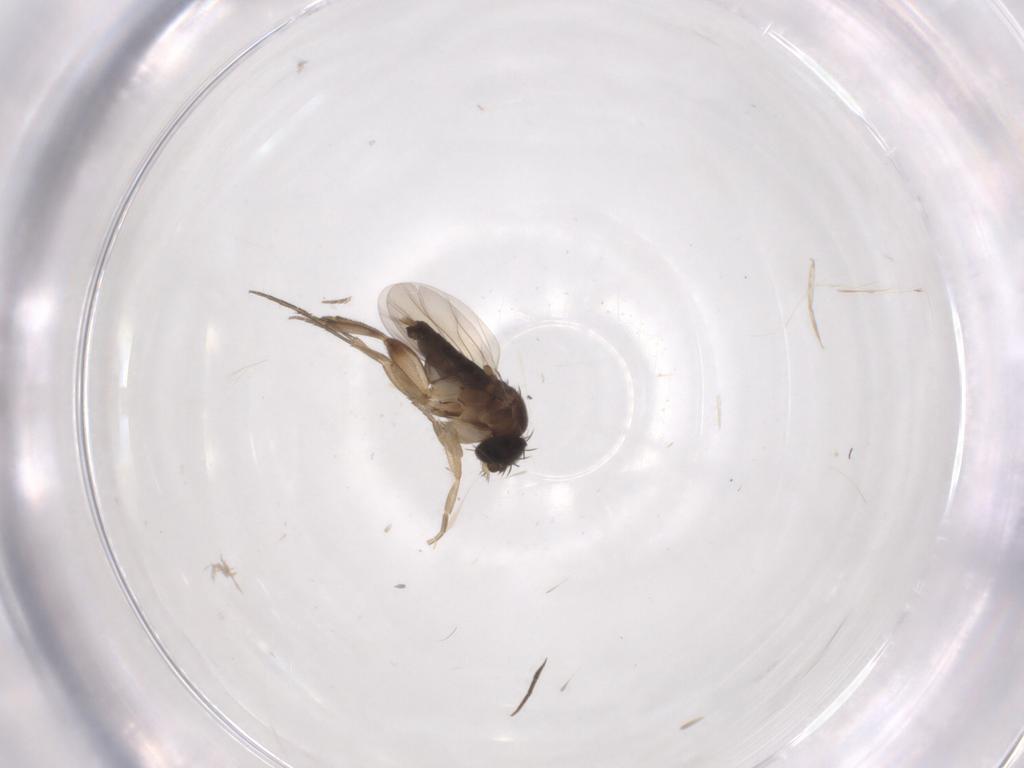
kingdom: Animalia
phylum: Arthropoda
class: Insecta
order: Diptera
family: Phoridae
